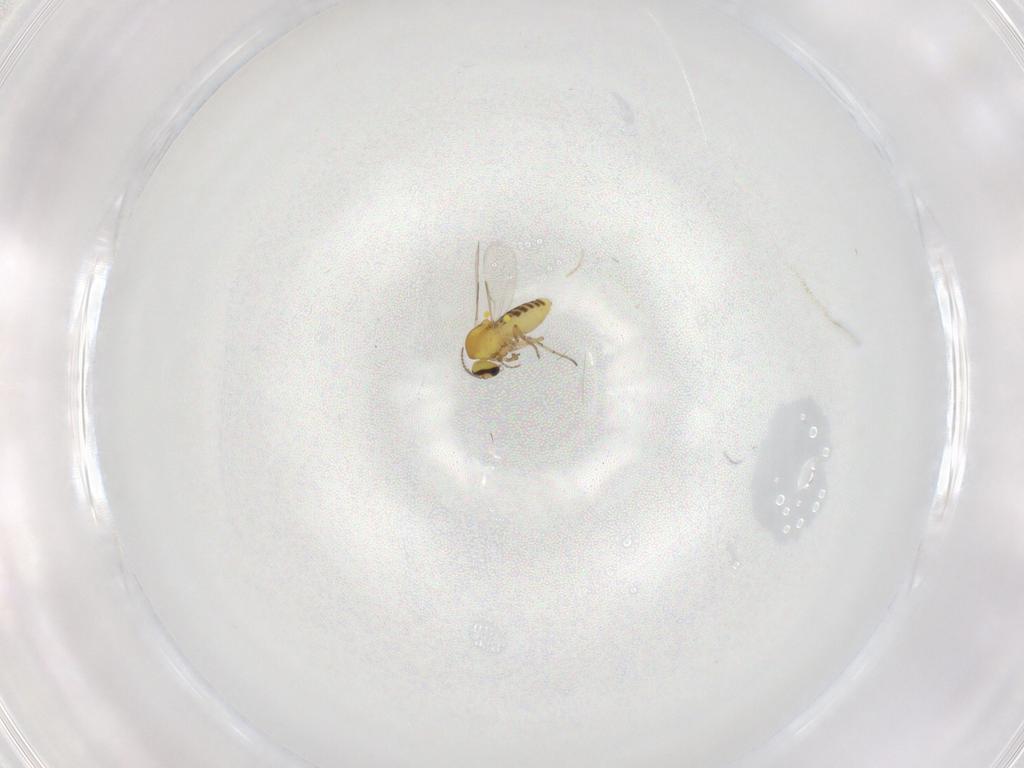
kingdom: Animalia
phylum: Arthropoda
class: Insecta
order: Diptera
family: Ceratopogonidae
